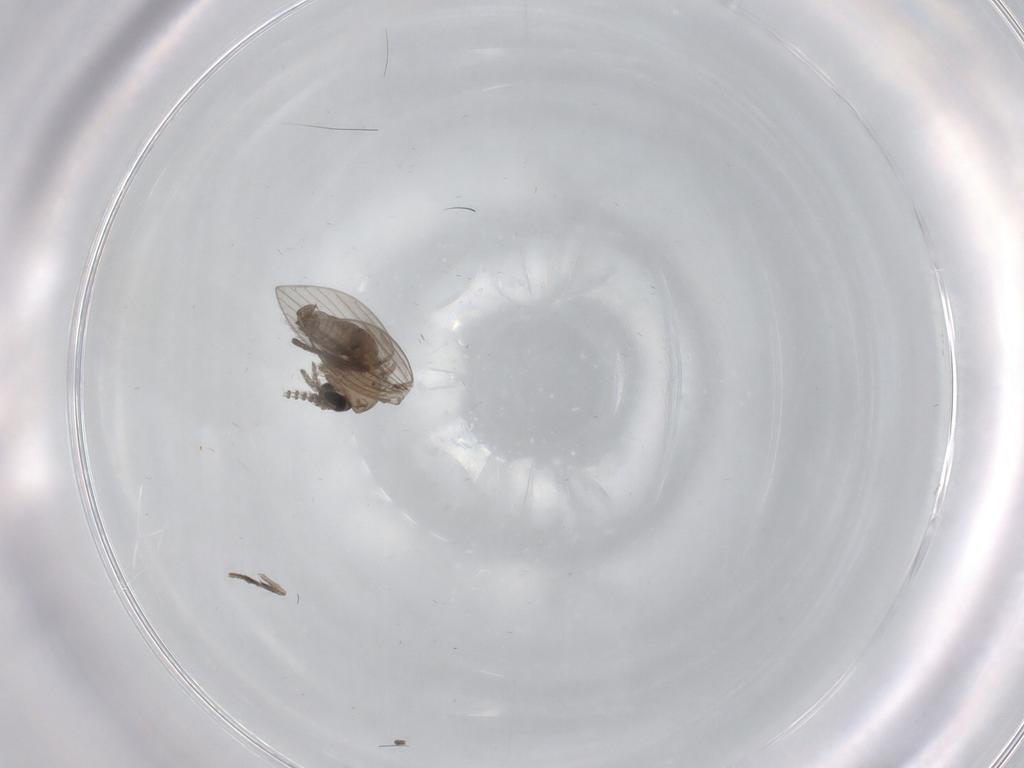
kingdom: Animalia
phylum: Arthropoda
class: Insecta
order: Diptera
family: Psychodidae
